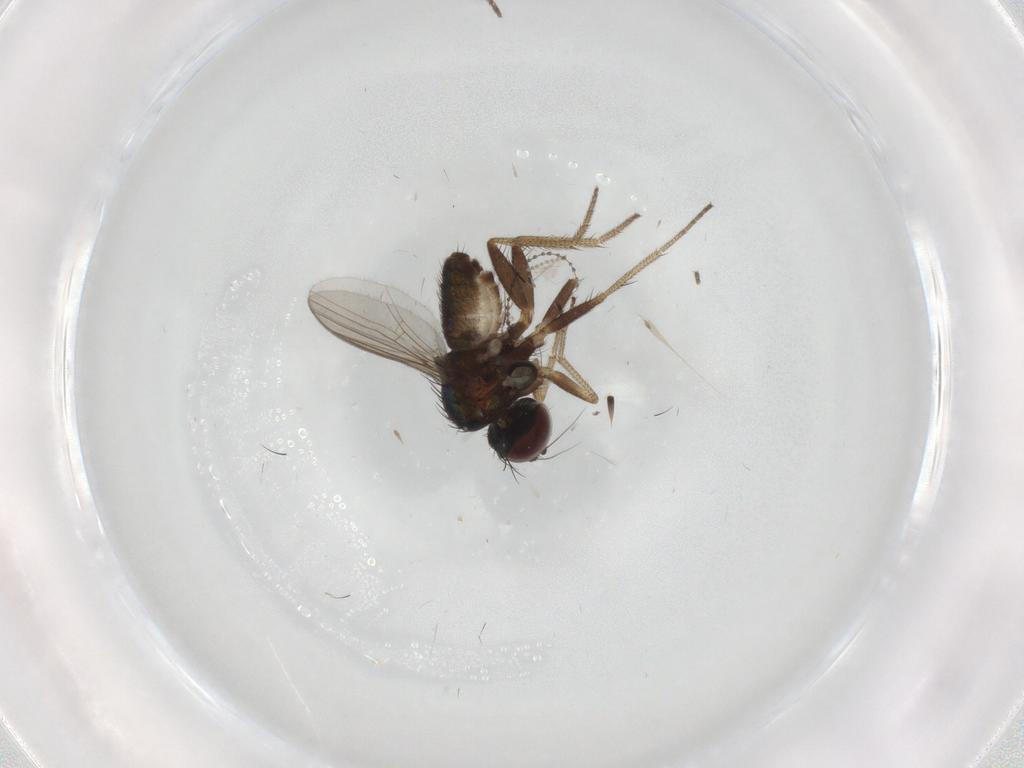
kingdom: Animalia
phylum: Arthropoda
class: Insecta
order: Diptera
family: Dolichopodidae
